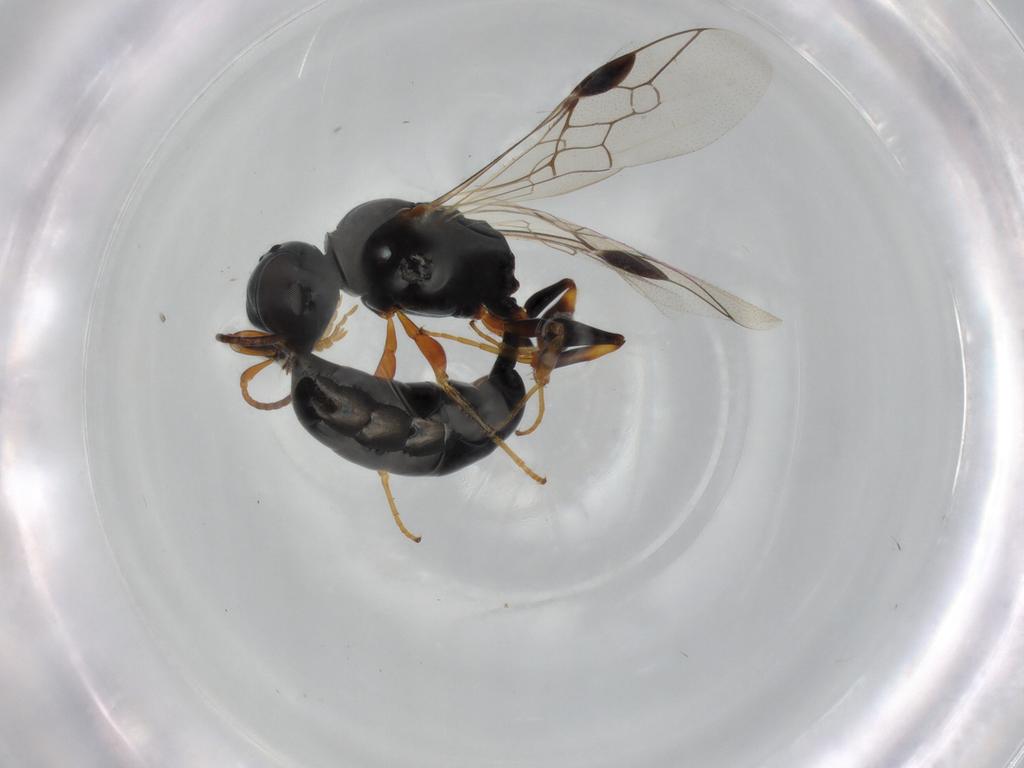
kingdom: Animalia
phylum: Arthropoda
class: Insecta
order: Hymenoptera
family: Crabronidae
